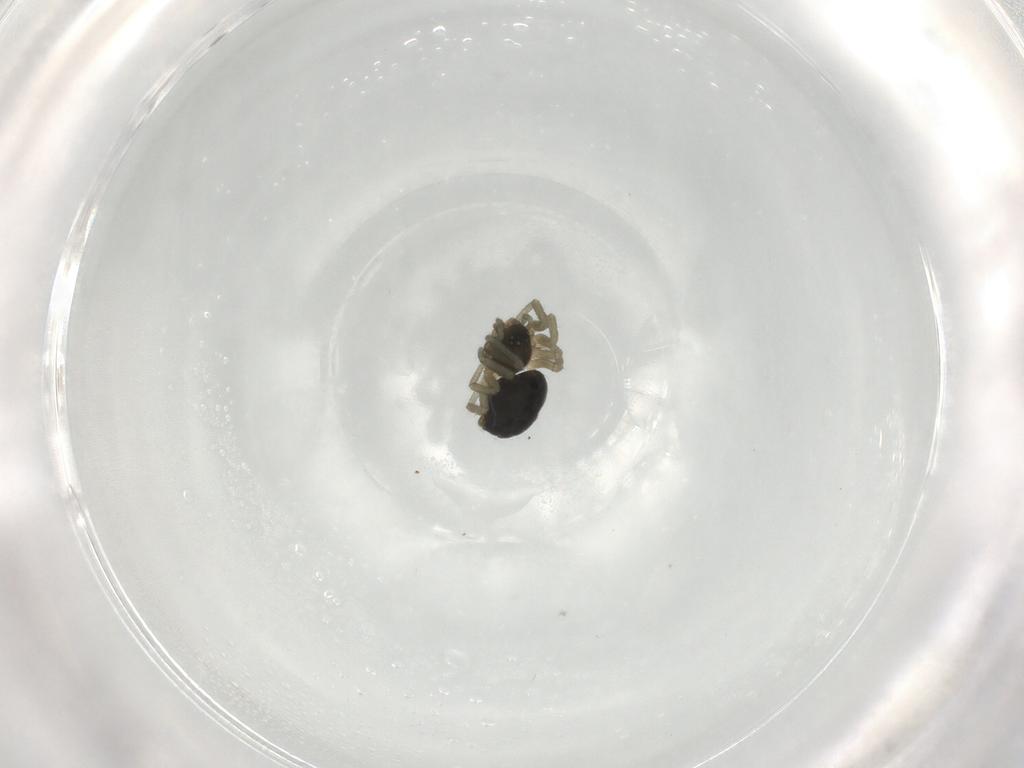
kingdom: Animalia
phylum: Arthropoda
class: Arachnida
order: Araneae
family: Linyphiidae
